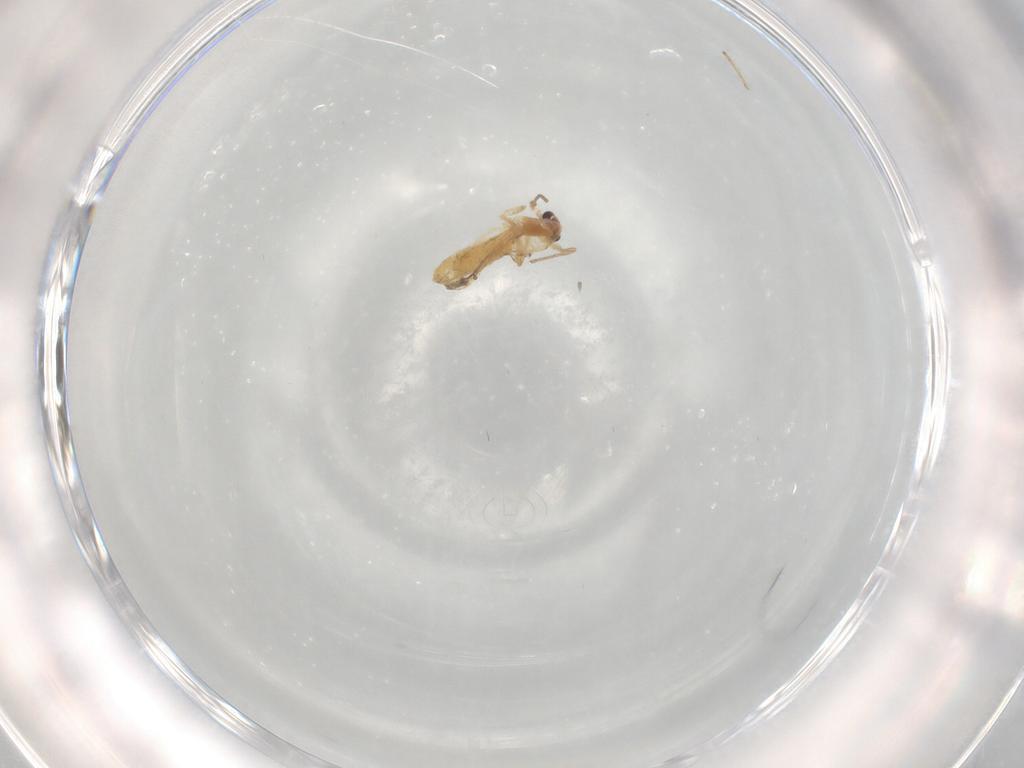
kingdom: Animalia
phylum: Arthropoda
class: Insecta
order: Diptera
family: Chironomidae
